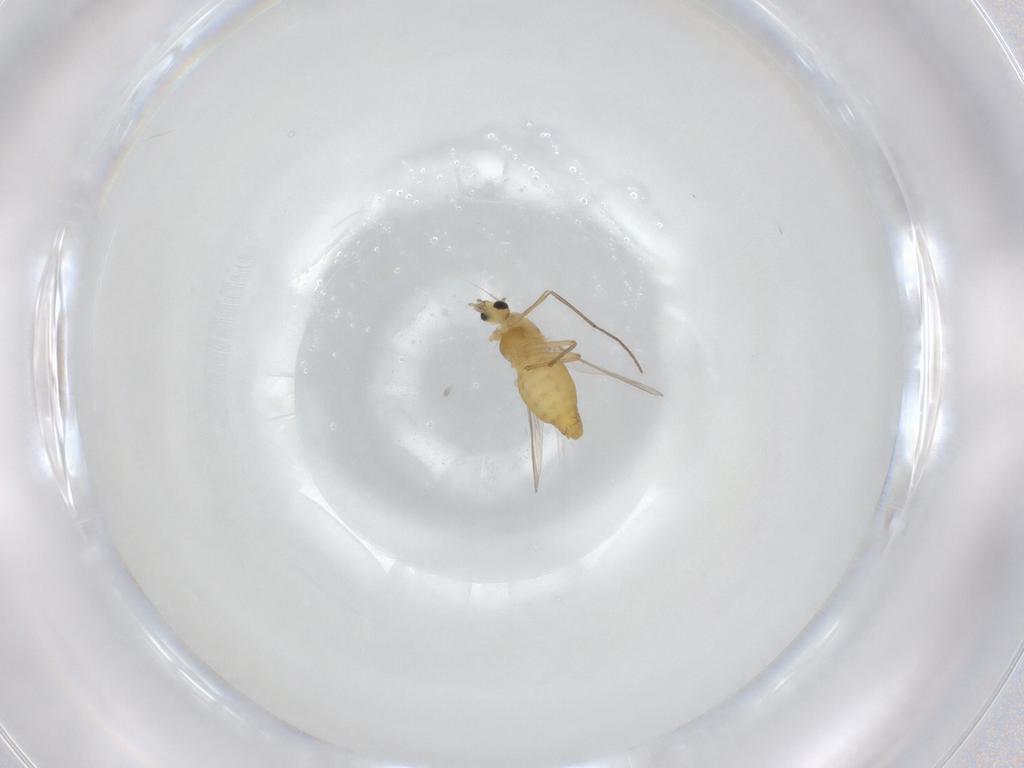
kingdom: Animalia
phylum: Arthropoda
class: Insecta
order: Diptera
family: Chironomidae
